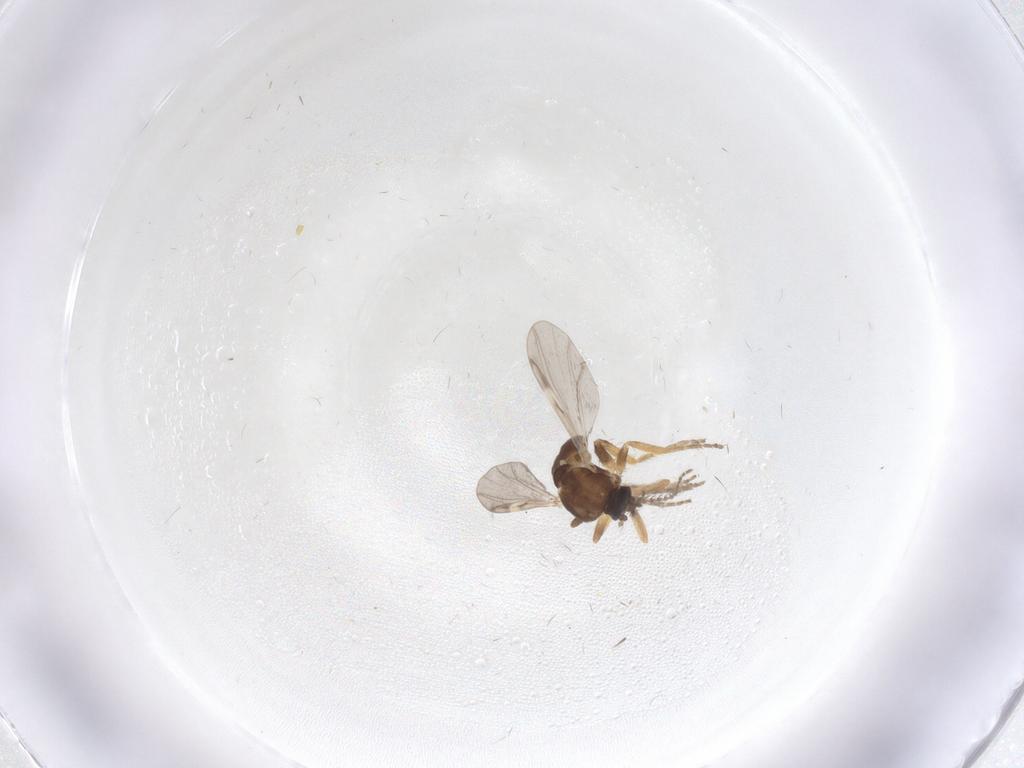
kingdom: Animalia
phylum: Arthropoda
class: Insecta
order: Diptera
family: Ceratopogonidae
